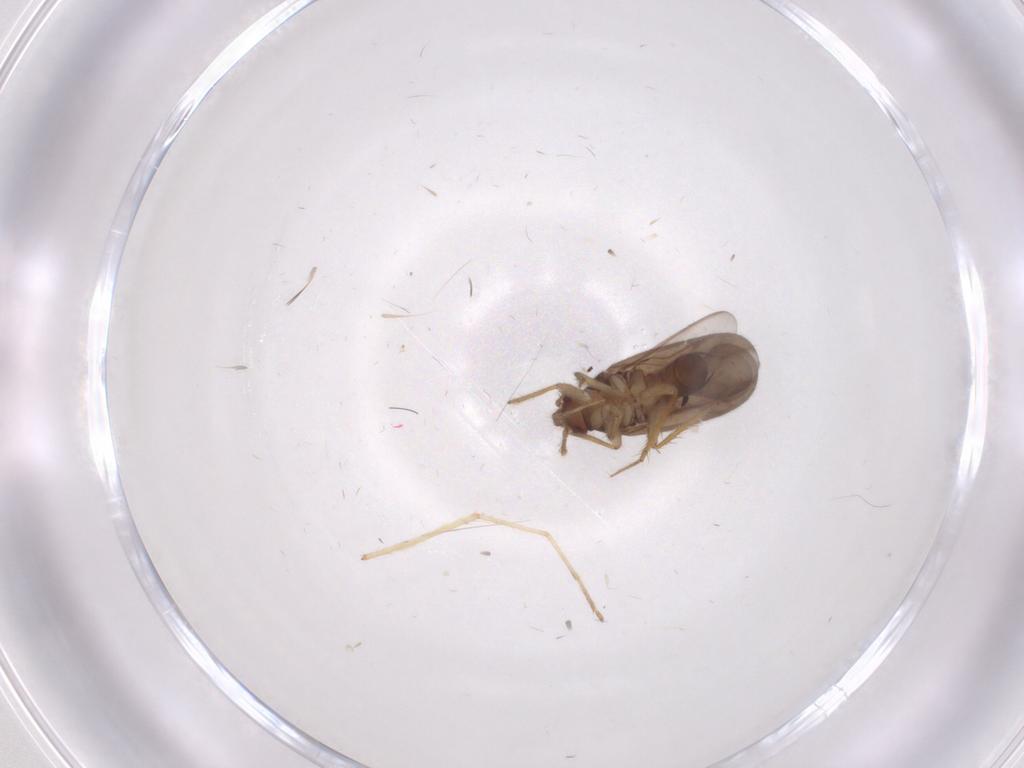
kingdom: Animalia
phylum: Arthropoda
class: Insecta
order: Hemiptera
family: Ceratocombidae
